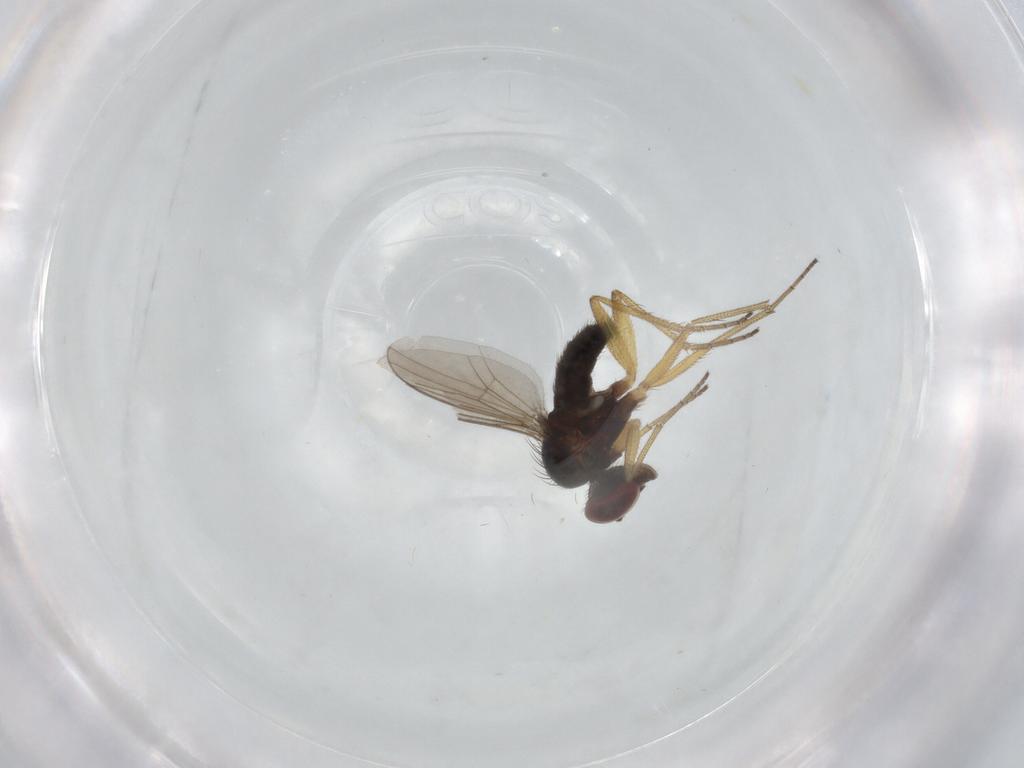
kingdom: Animalia
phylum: Arthropoda
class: Insecta
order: Diptera
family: Dolichopodidae
